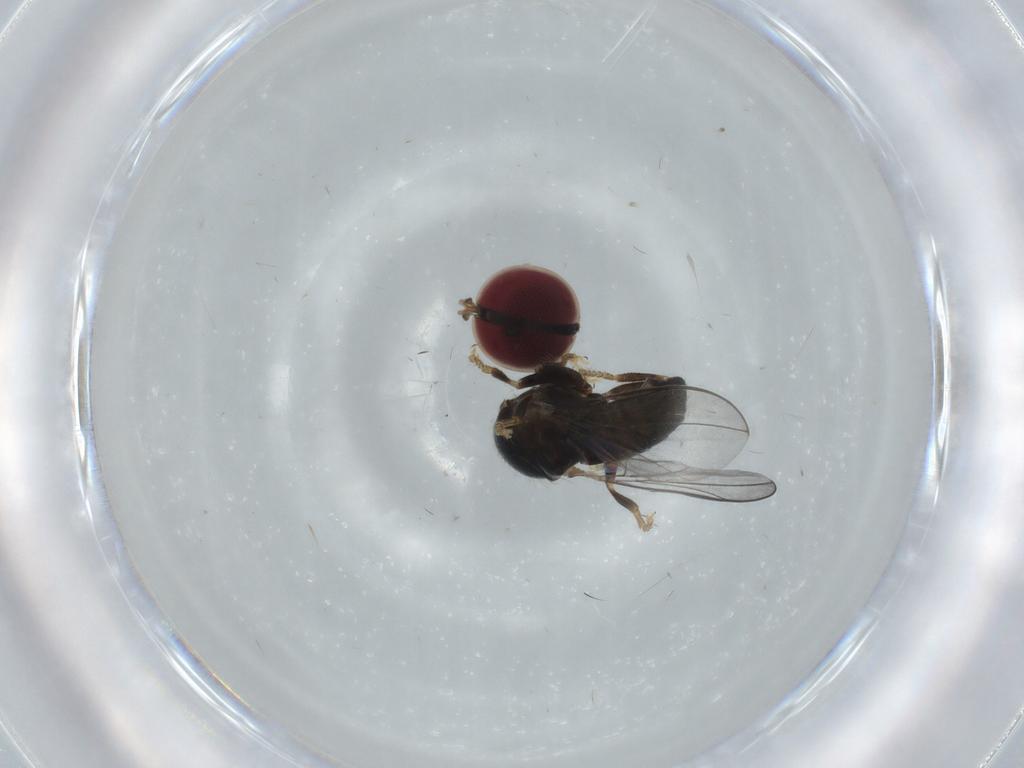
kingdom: Animalia
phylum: Arthropoda
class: Insecta
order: Diptera
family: Pipunculidae
